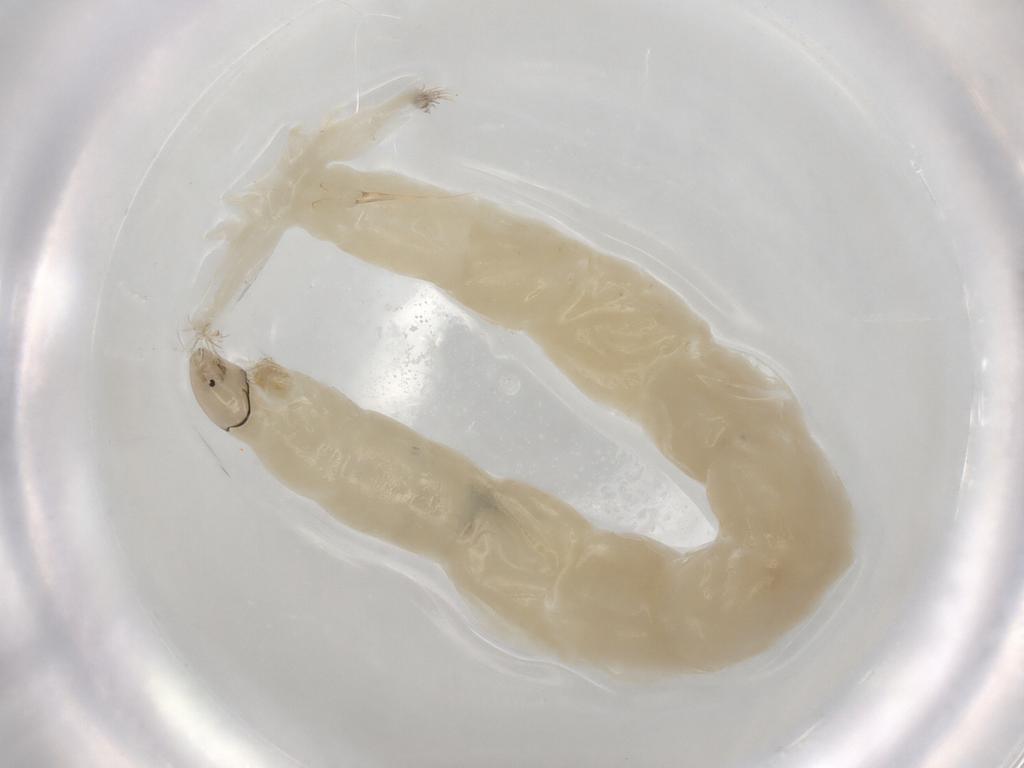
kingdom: Animalia
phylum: Arthropoda
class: Insecta
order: Diptera
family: Chironomidae
